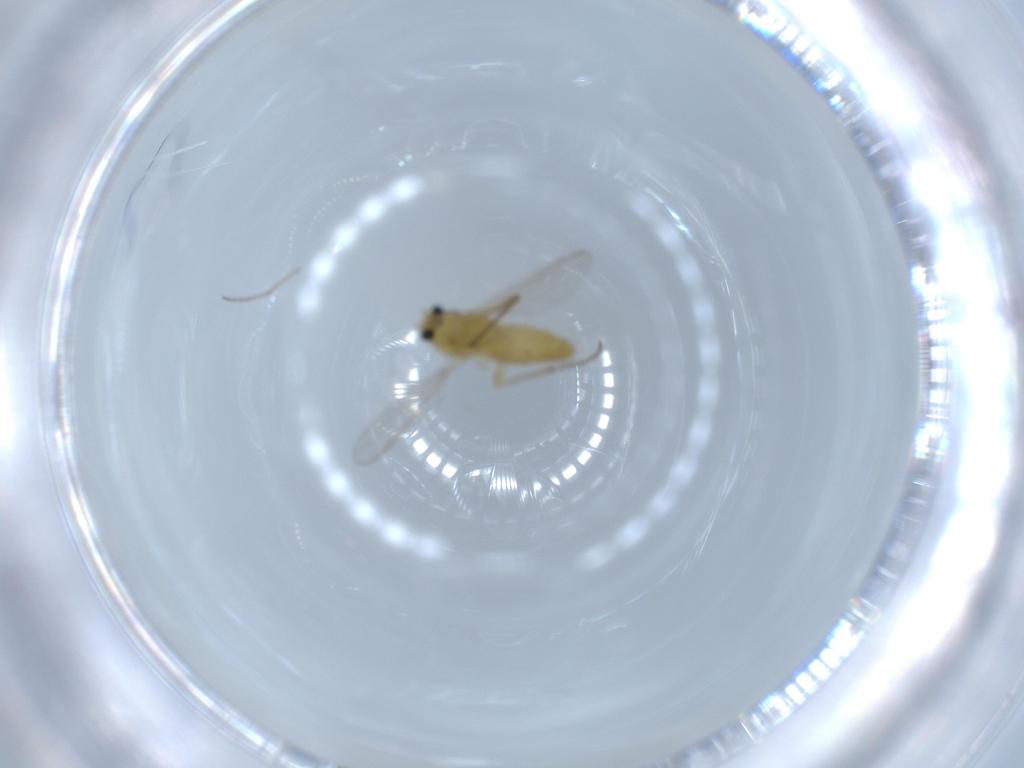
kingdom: Animalia
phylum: Arthropoda
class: Insecta
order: Diptera
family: Chironomidae
